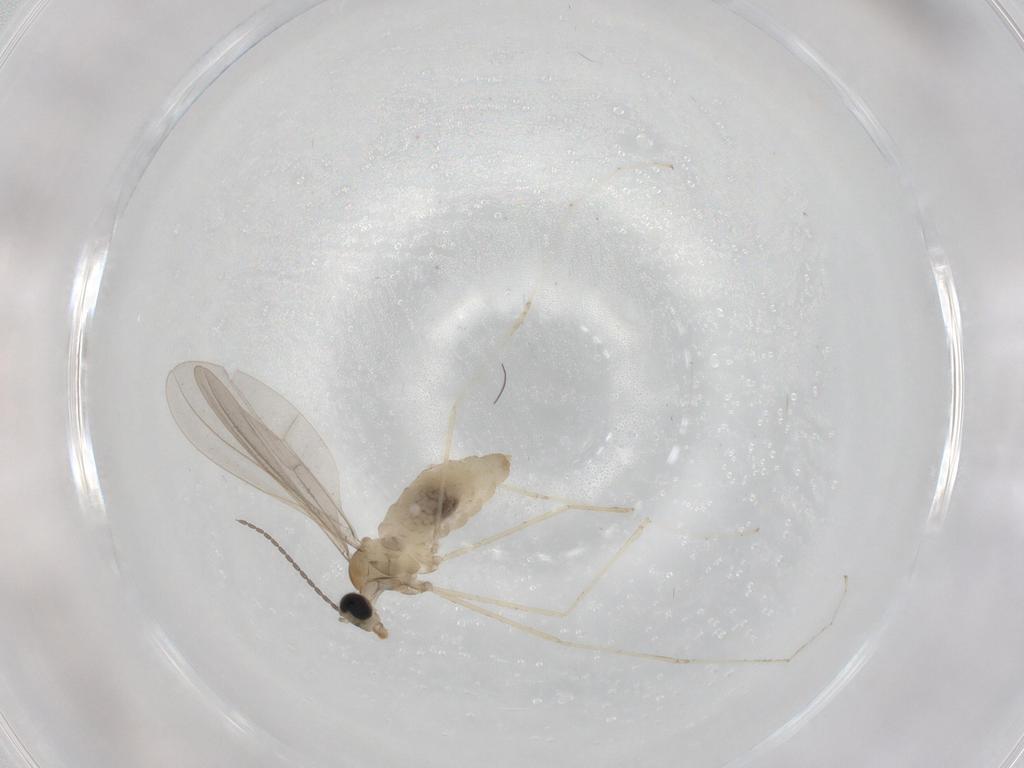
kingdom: Animalia
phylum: Arthropoda
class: Insecta
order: Diptera
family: Cecidomyiidae
